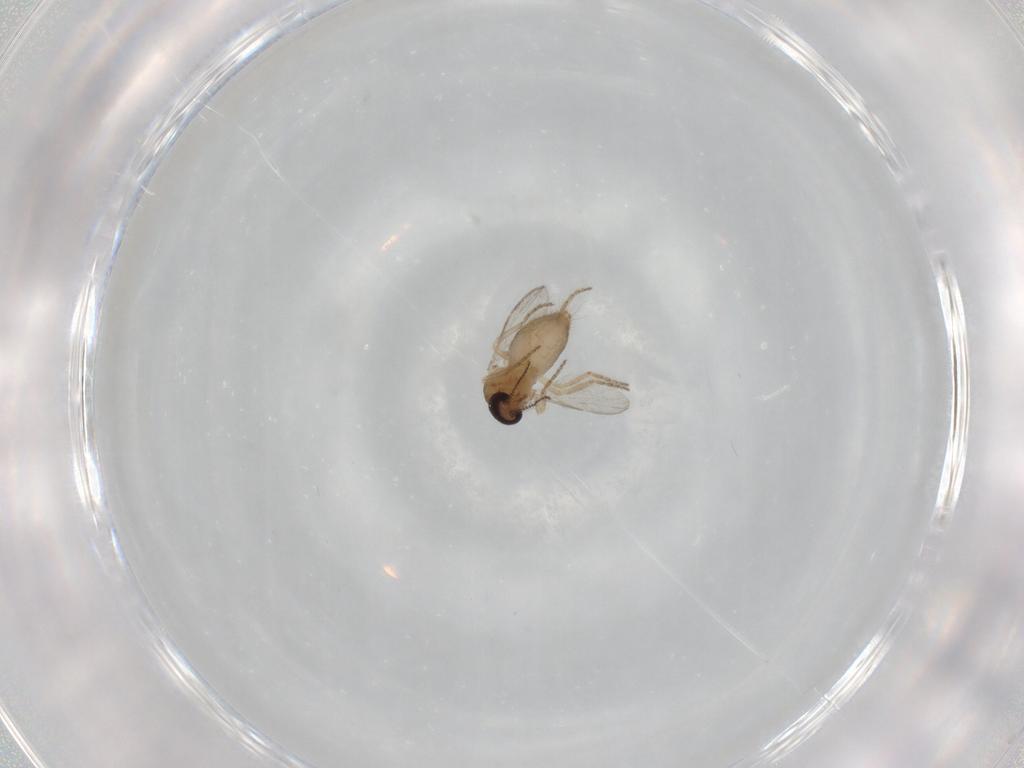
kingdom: Animalia
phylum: Arthropoda
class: Insecta
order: Diptera
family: Ceratopogonidae
